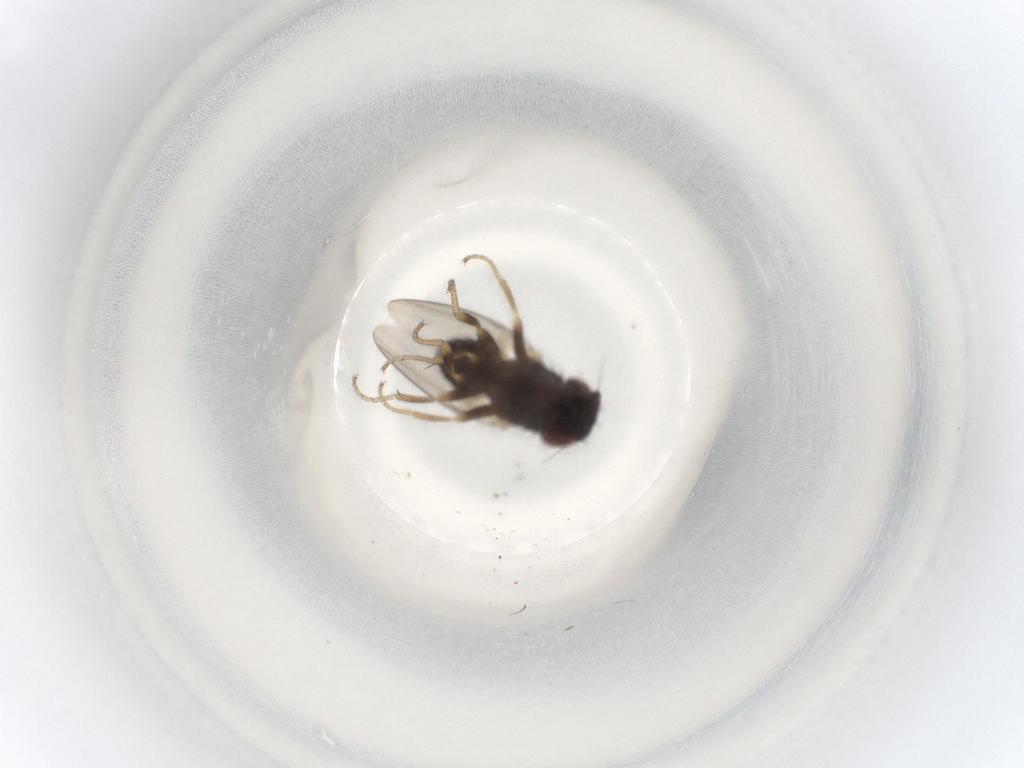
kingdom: Animalia
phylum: Arthropoda
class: Insecta
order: Diptera
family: Milichiidae
